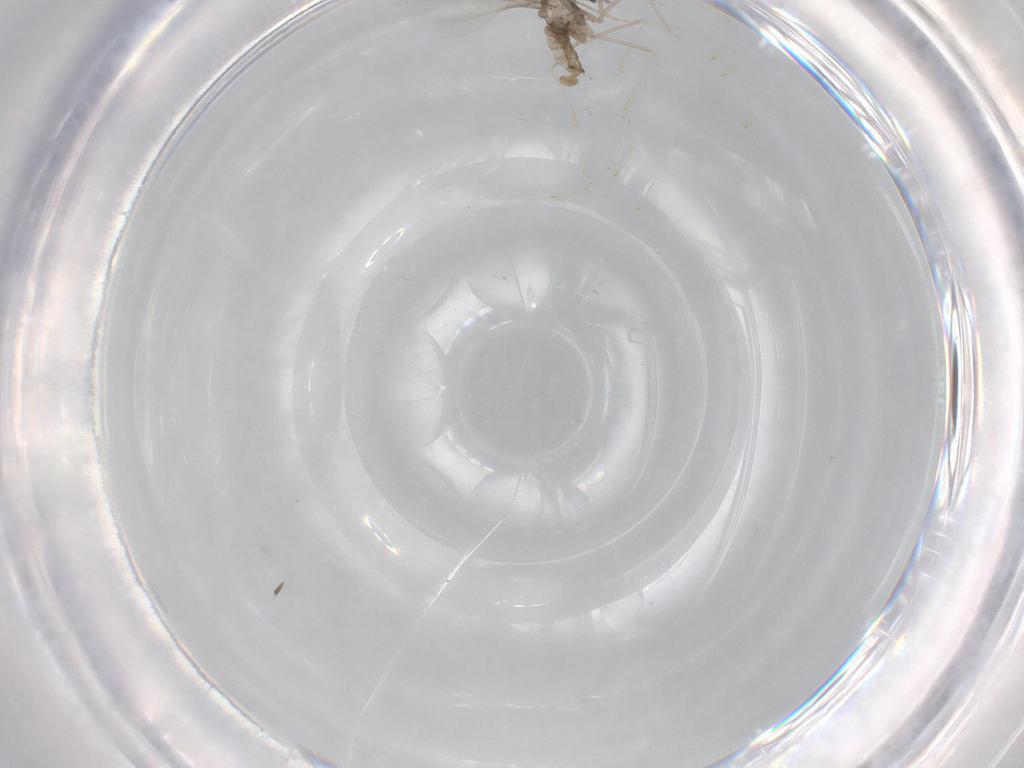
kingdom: Animalia
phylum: Arthropoda
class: Insecta
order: Diptera
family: Cecidomyiidae
